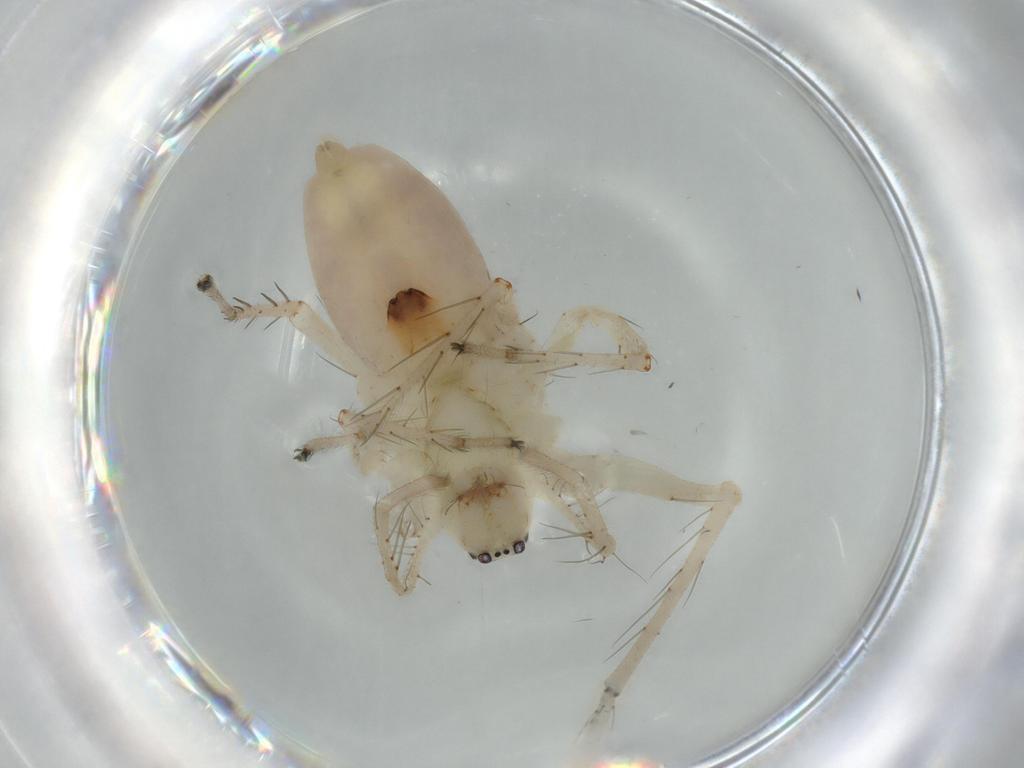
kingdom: Animalia
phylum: Arthropoda
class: Arachnida
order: Araneae
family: Anyphaenidae
